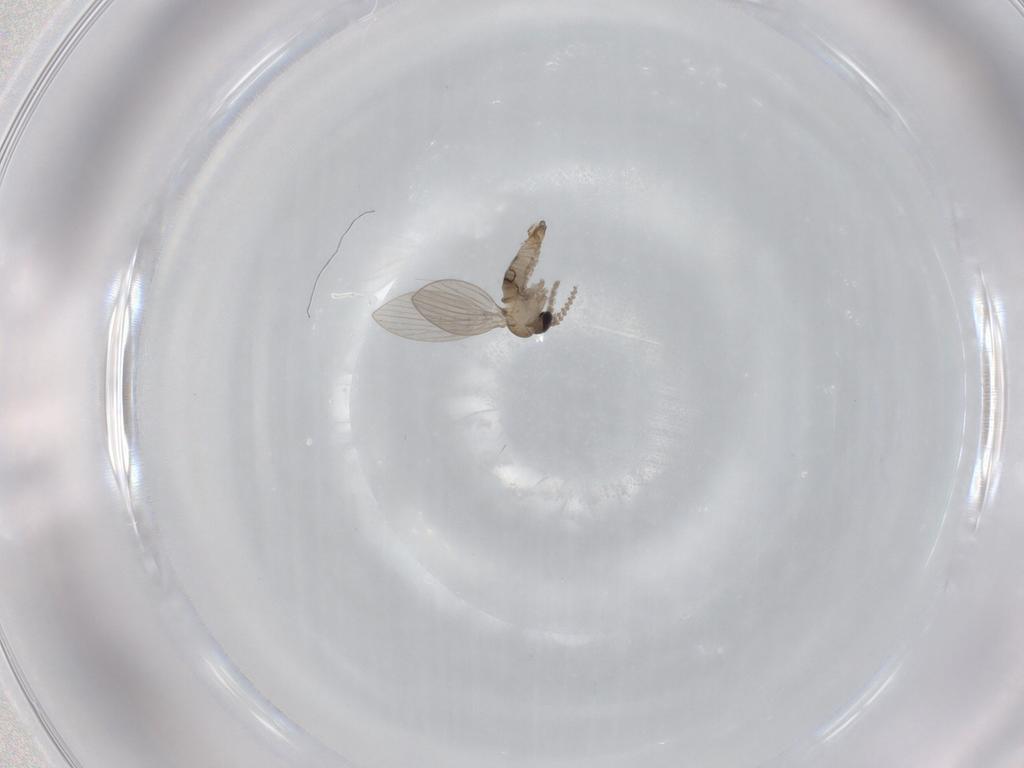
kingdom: Animalia
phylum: Arthropoda
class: Insecta
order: Diptera
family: Psychodidae
